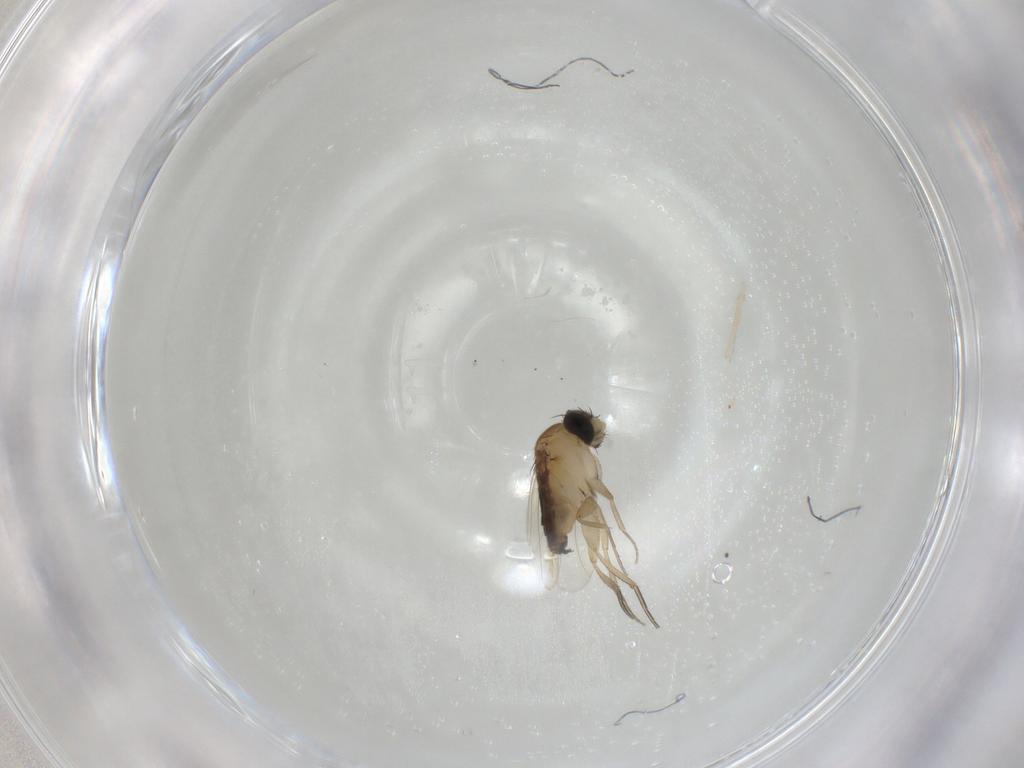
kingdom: Animalia
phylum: Arthropoda
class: Insecta
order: Diptera
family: Phoridae
